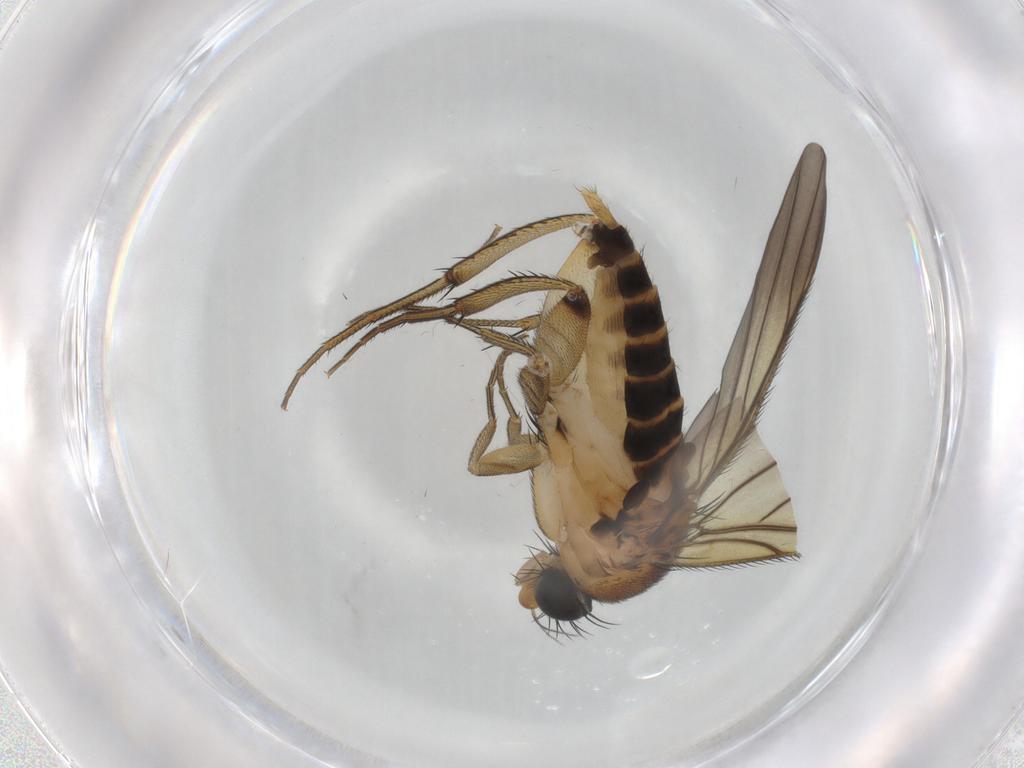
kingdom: Animalia
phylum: Arthropoda
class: Insecta
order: Diptera
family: Phoridae
